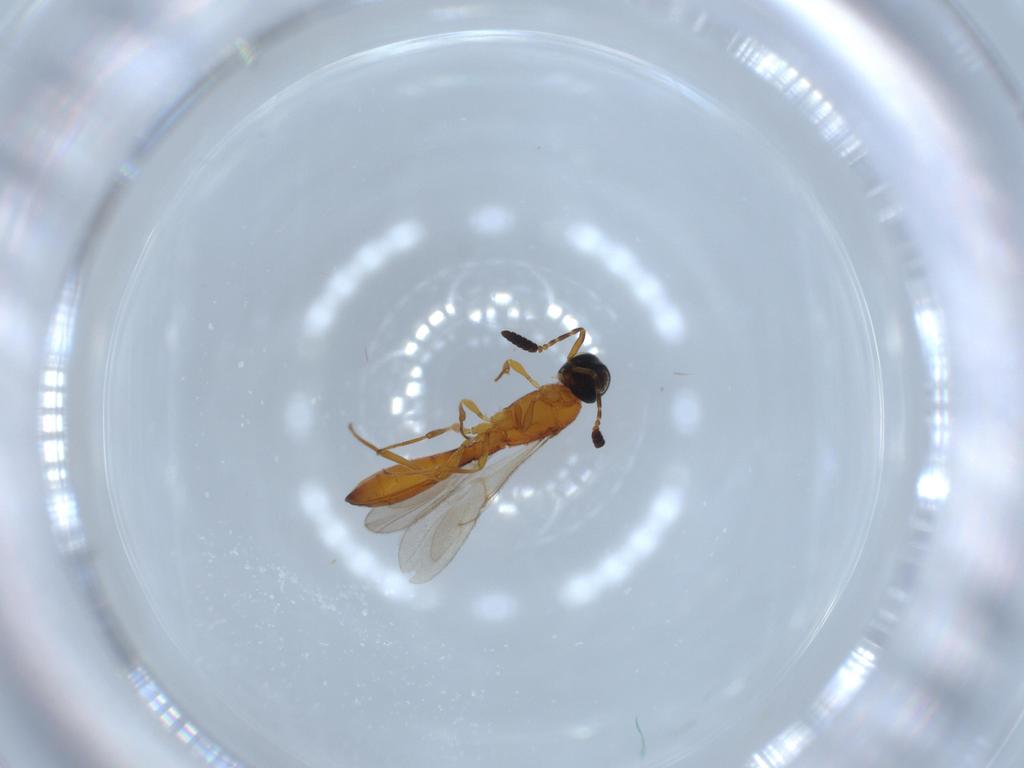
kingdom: Animalia
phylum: Arthropoda
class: Insecta
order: Hymenoptera
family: Scelionidae
